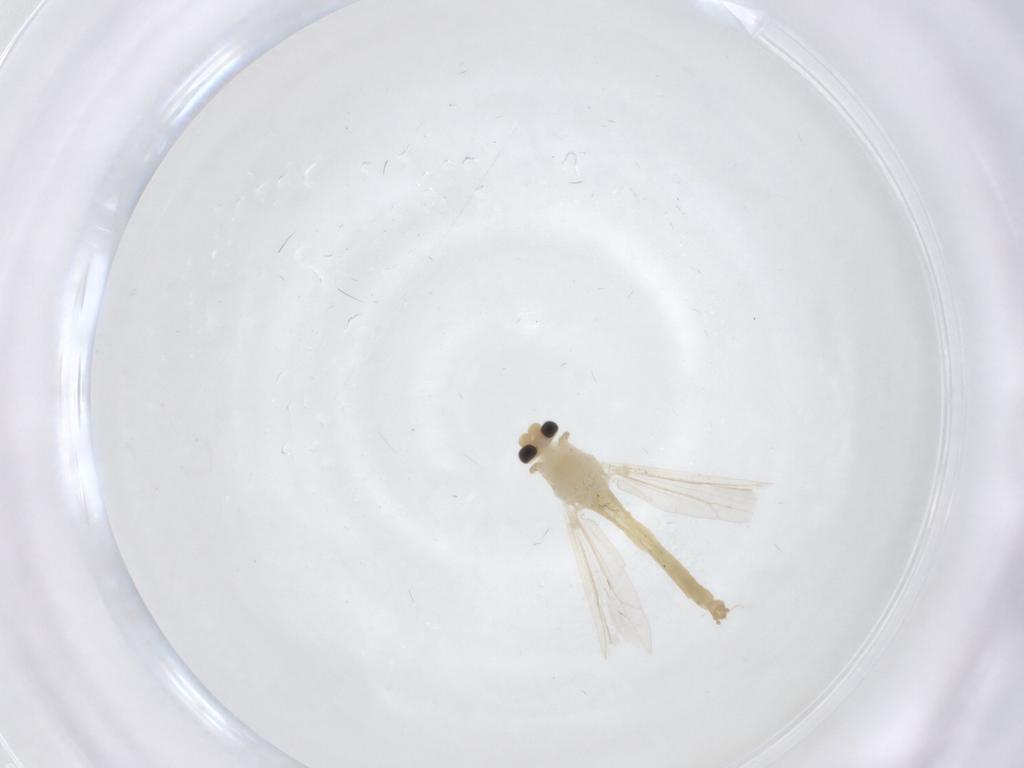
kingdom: Animalia
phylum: Arthropoda
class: Insecta
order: Diptera
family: Chironomidae
